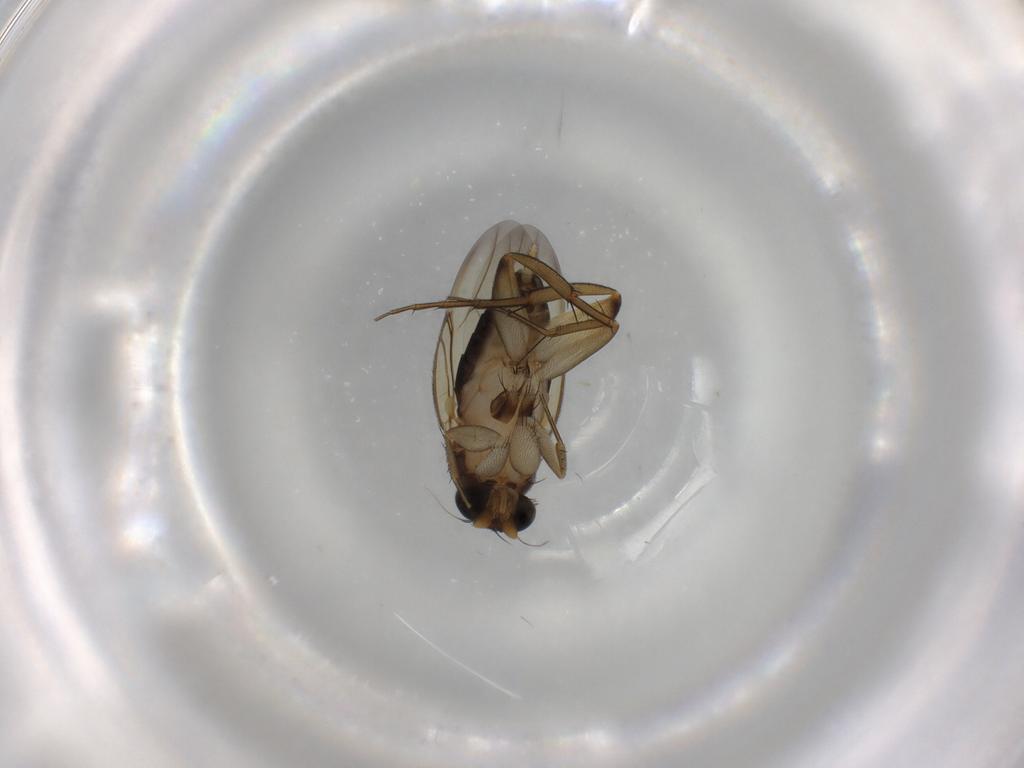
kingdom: Animalia
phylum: Arthropoda
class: Insecta
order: Diptera
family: Phoridae
